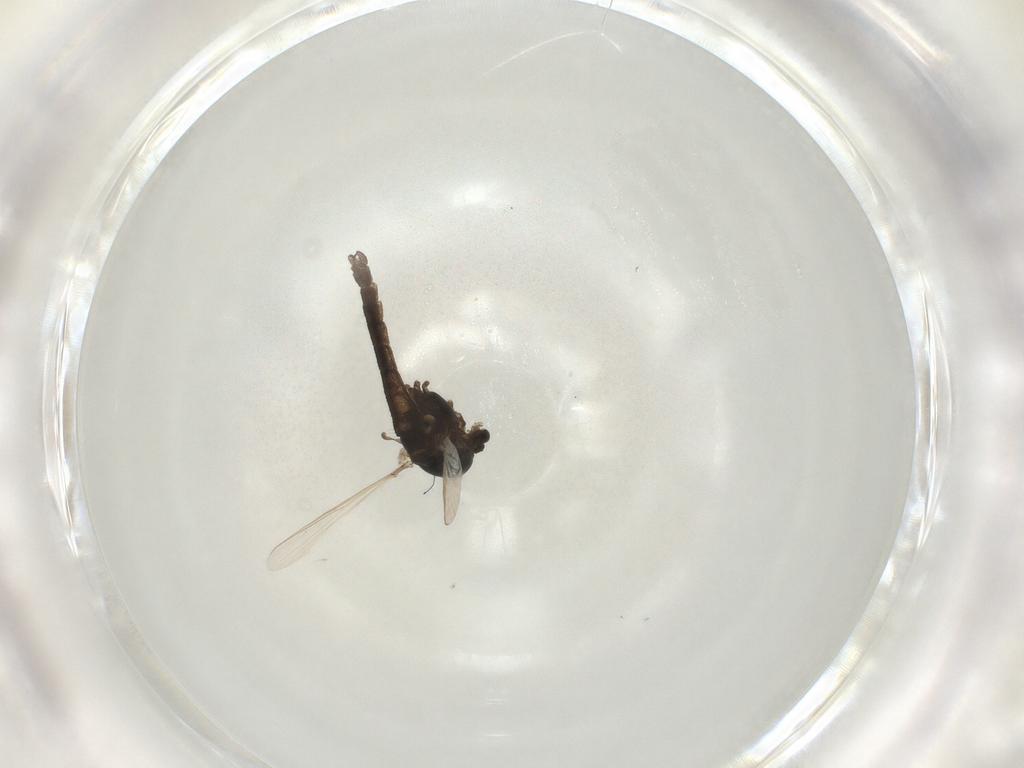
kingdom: Animalia
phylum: Arthropoda
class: Insecta
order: Diptera
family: Chironomidae
